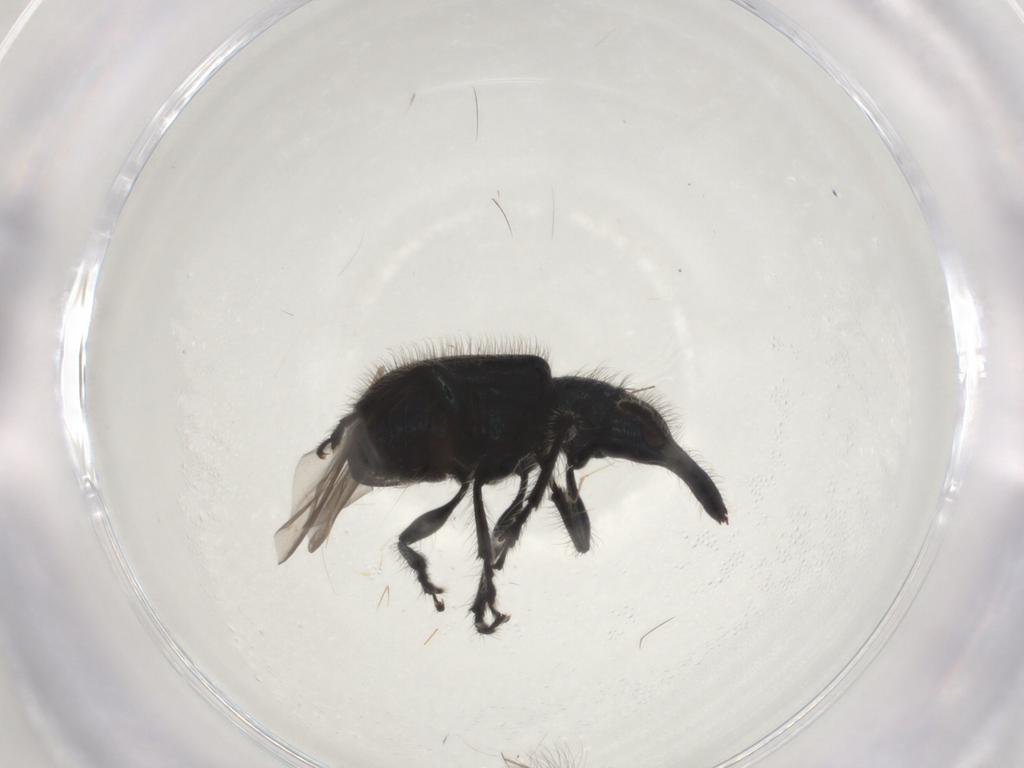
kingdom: Animalia
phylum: Arthropoda
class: Insecta
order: Coleoptera
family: Attelabidae
